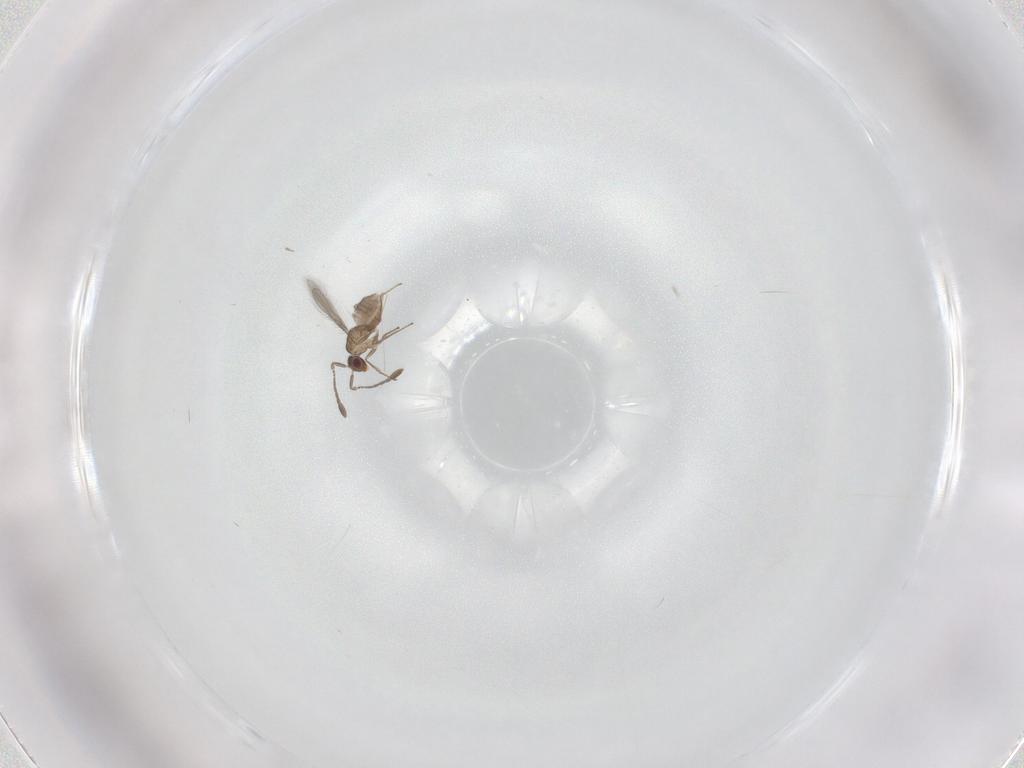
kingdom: Animalia
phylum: Arthropoda
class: Insecta
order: Hymenoptera
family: Mymaridae
